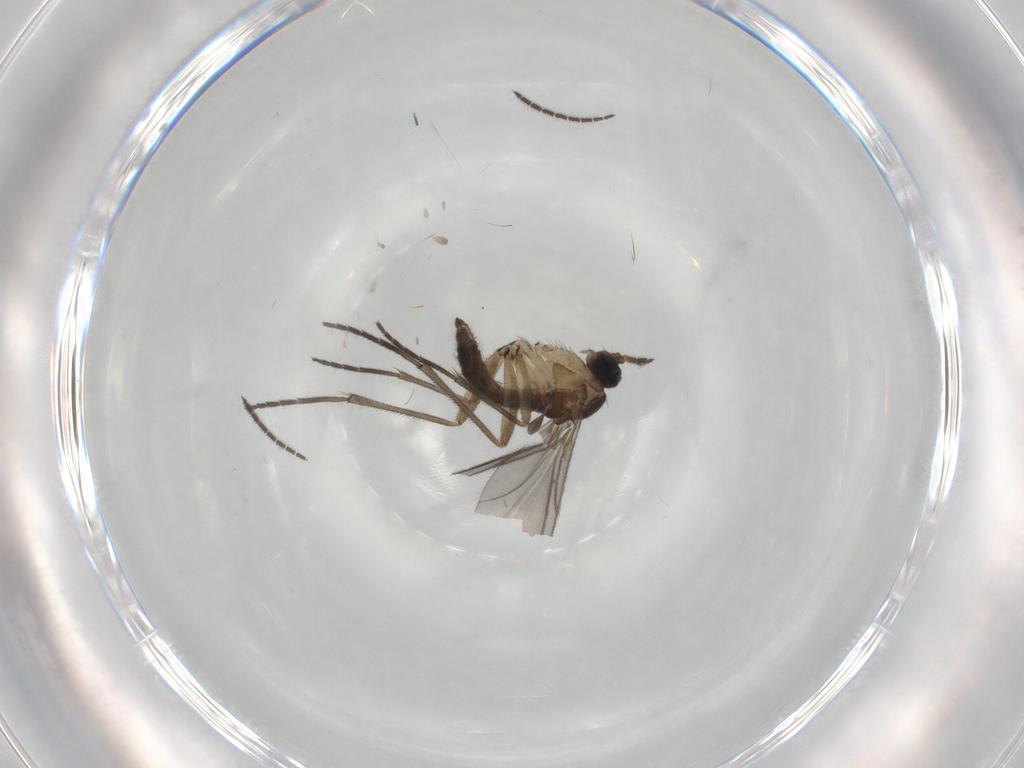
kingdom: Animalia
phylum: Arthropoda
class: Insecta
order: Diptera
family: Sciaridae
